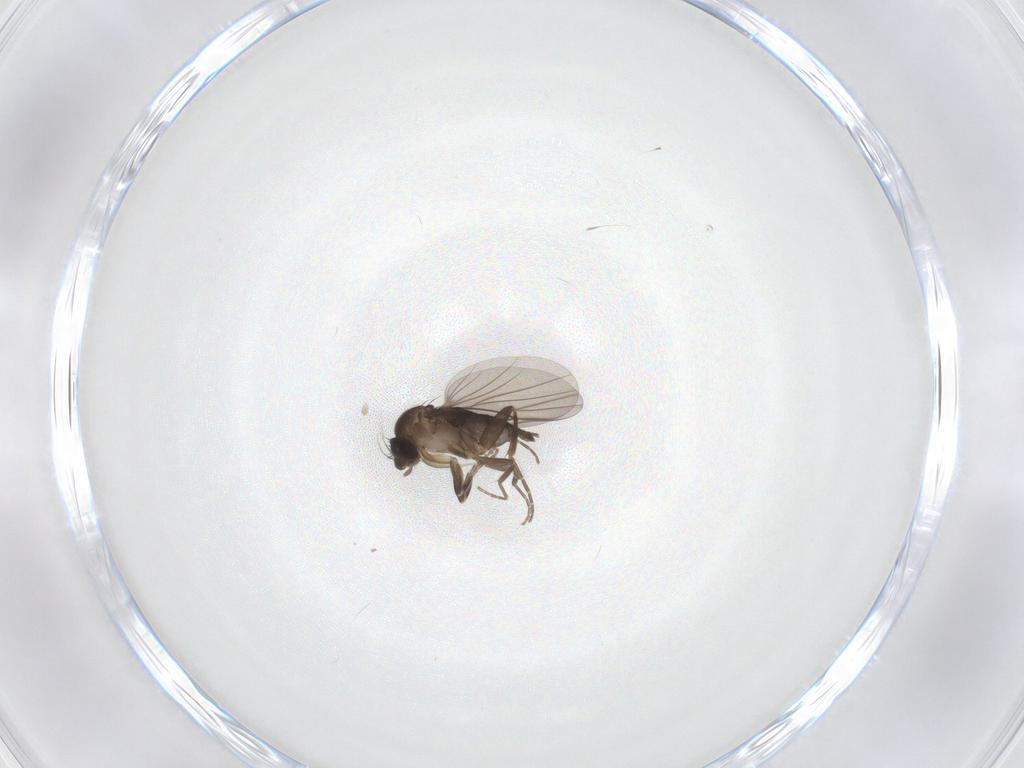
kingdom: Animalia
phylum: Arthropoda
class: Insecta
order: Diptera
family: Cecidomyiidae
